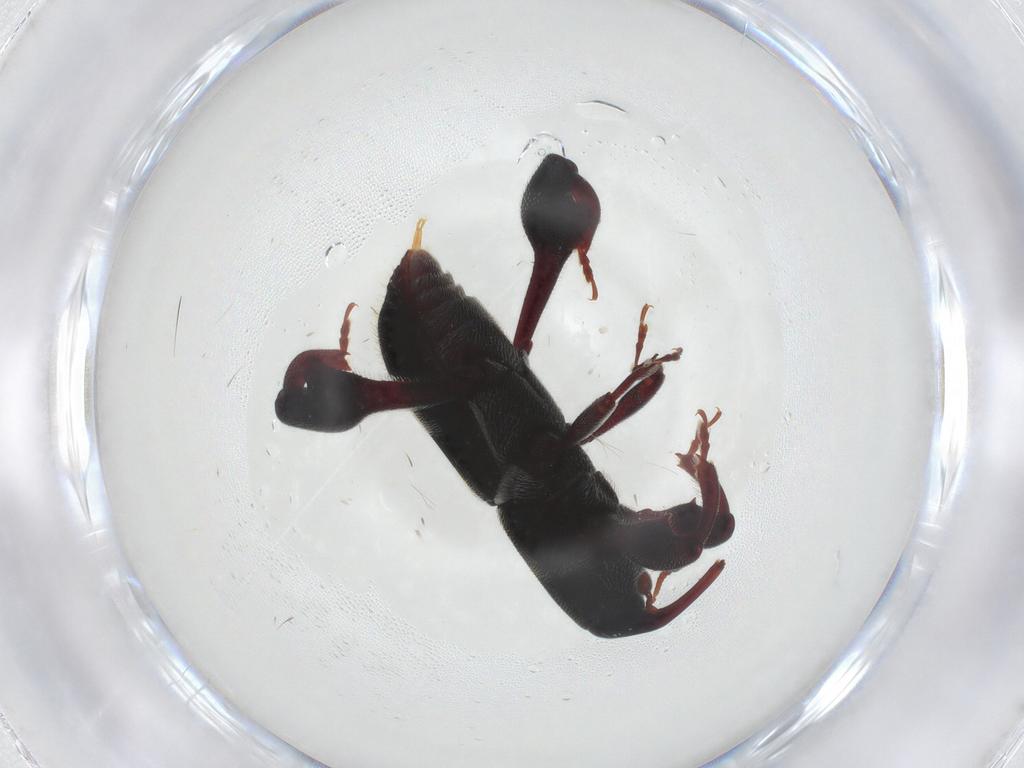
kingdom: Animalia
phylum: Arthropoda
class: Insecta
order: Coleoptera
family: Curculionidae
